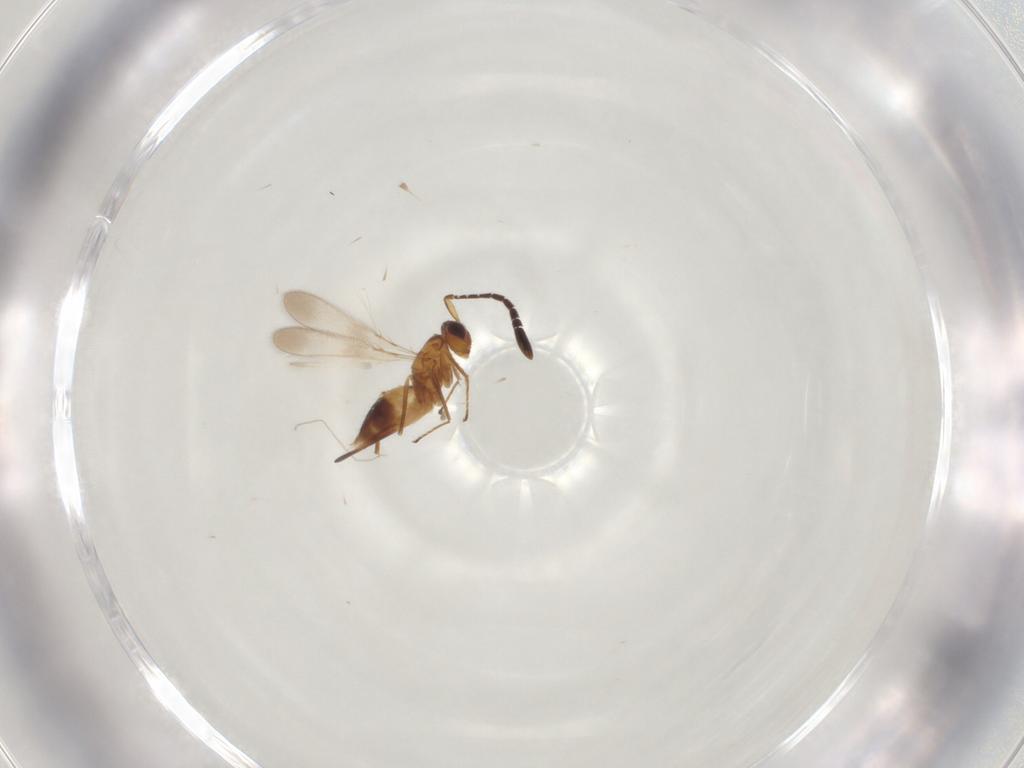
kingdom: Animalia
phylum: Arthropoda
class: Insecta
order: Hymenoptera
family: Mymaridae
